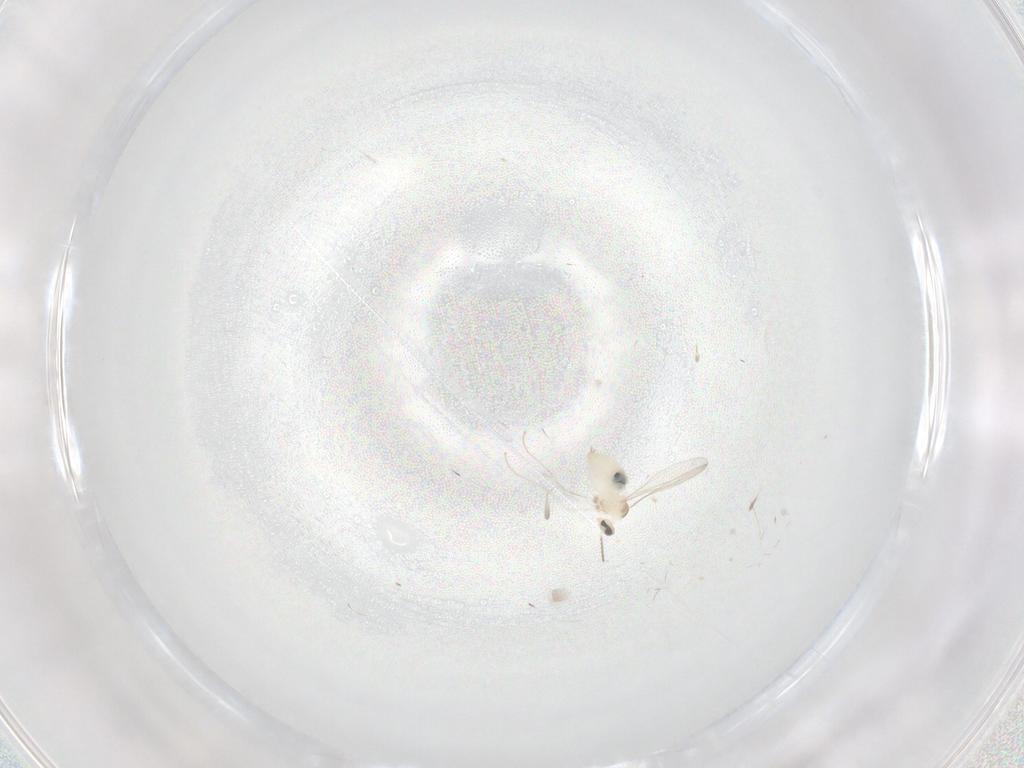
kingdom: Animalia
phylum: Arthropoda
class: Insecta
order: Diptera
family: Cecidomyiidae
